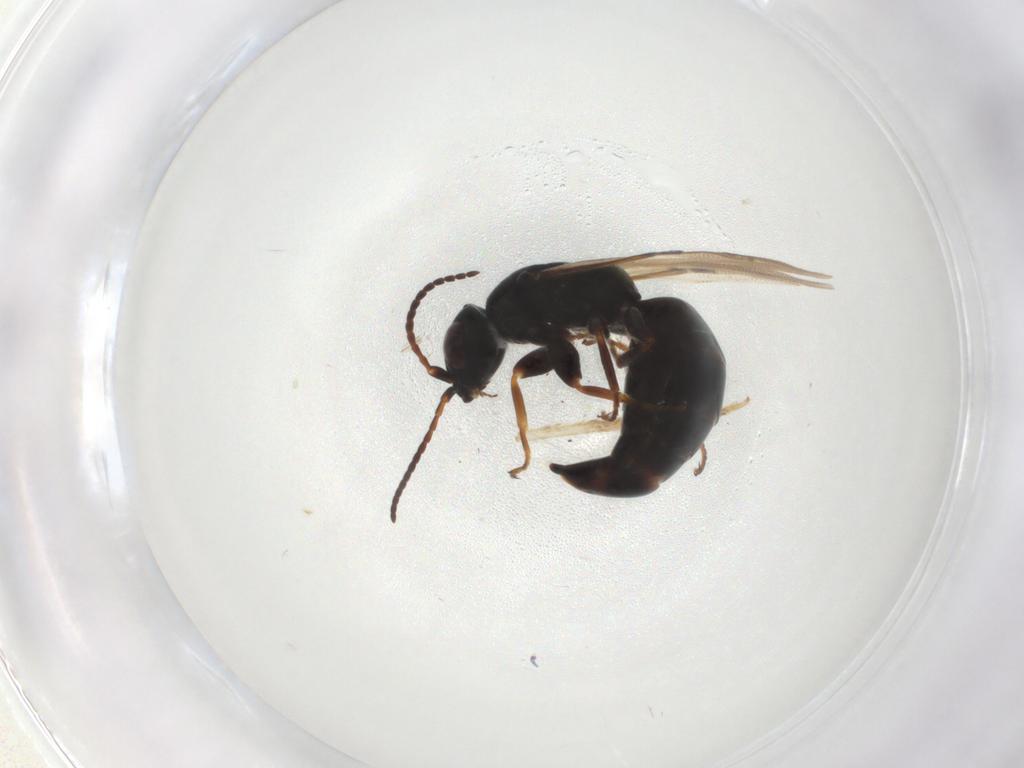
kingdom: Animalia
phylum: Arthropoda
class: Insecta
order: Hymenoptera
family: Bethylidae
